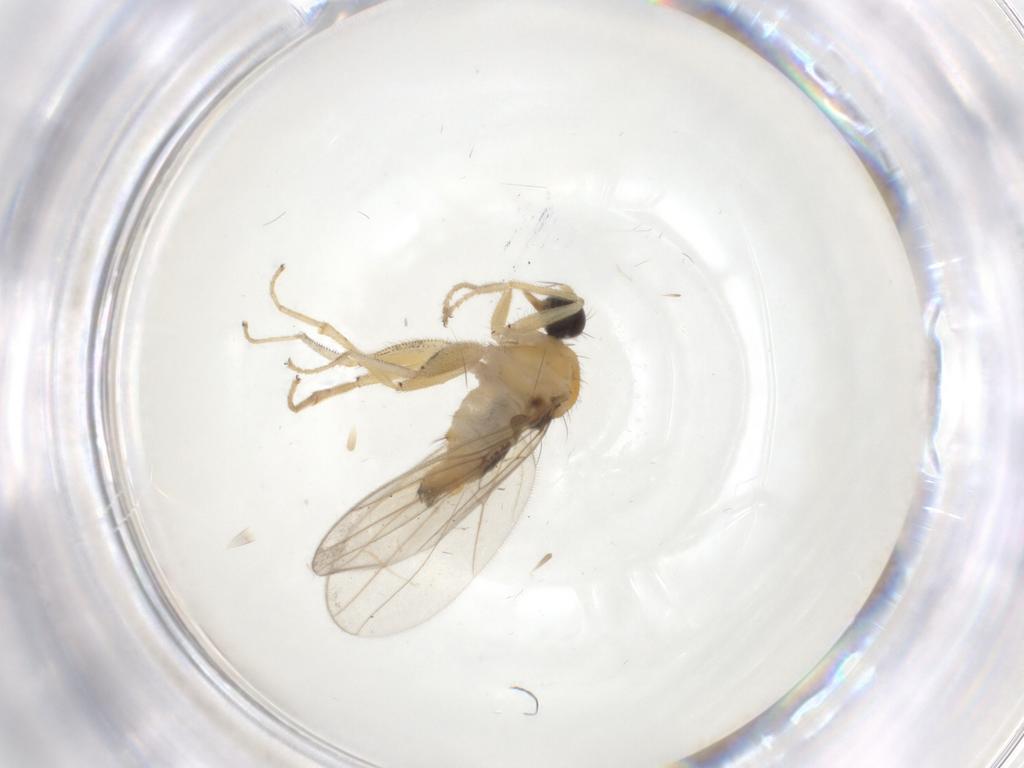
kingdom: Animalia
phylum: Arthropoda
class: Insecta
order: Diptera
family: Hybotidae
